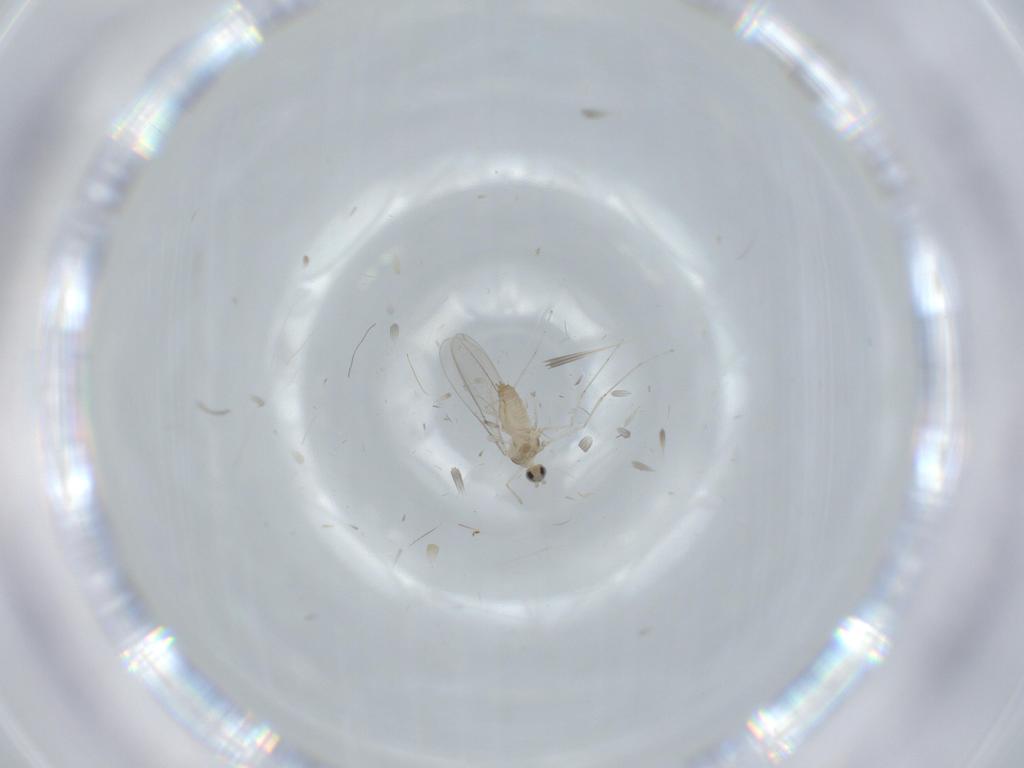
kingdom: Animalia
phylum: Arthropoda
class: Insecta
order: Diptera
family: Cecidomyiidae
